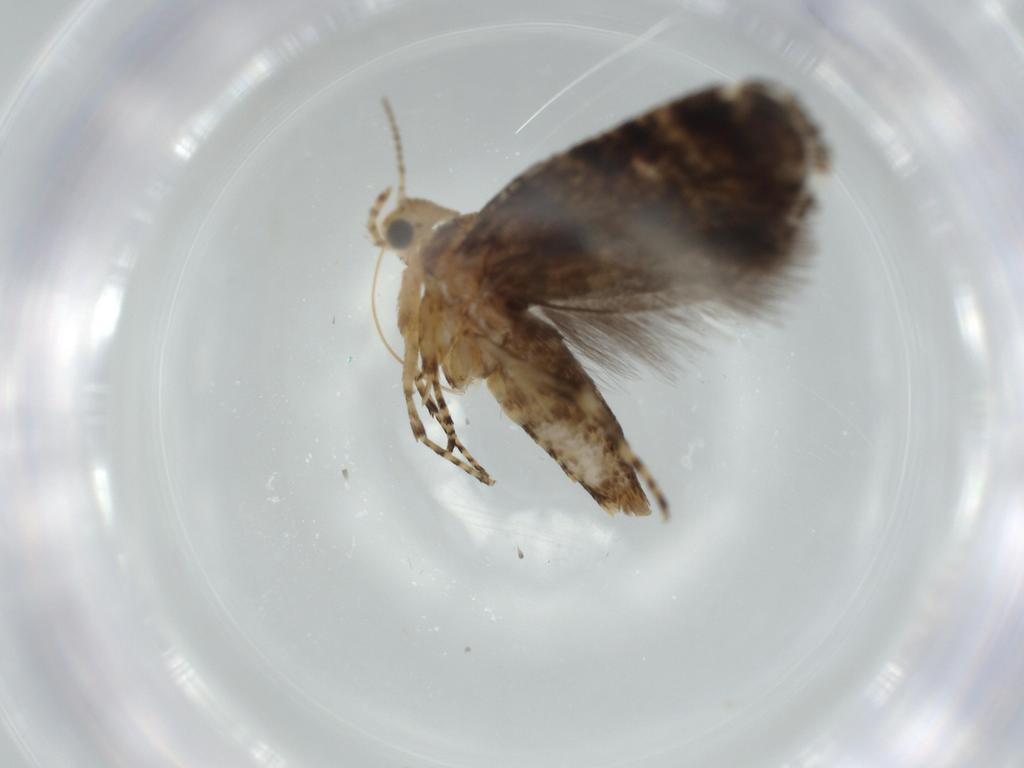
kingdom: Animalia
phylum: Arthropoda
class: Insecta
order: Lepidoptera
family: Glyphipterigidae
